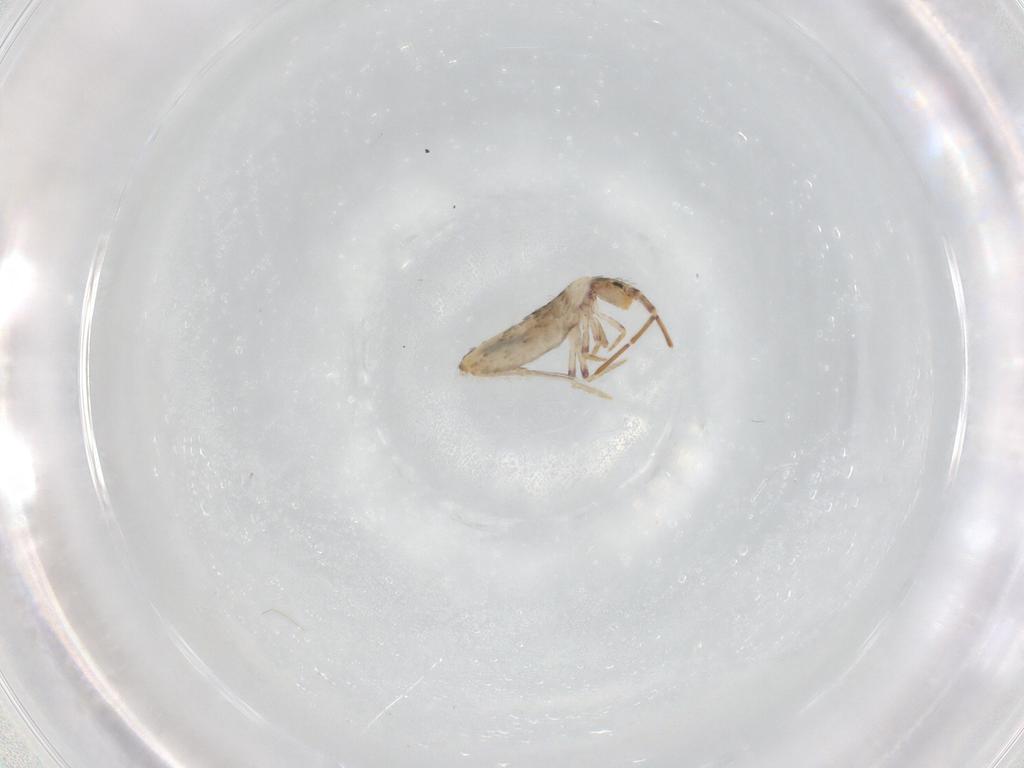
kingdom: Animalia
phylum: Arthropoda
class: Collembola
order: Entomobryomorpha
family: Entomobryidae
